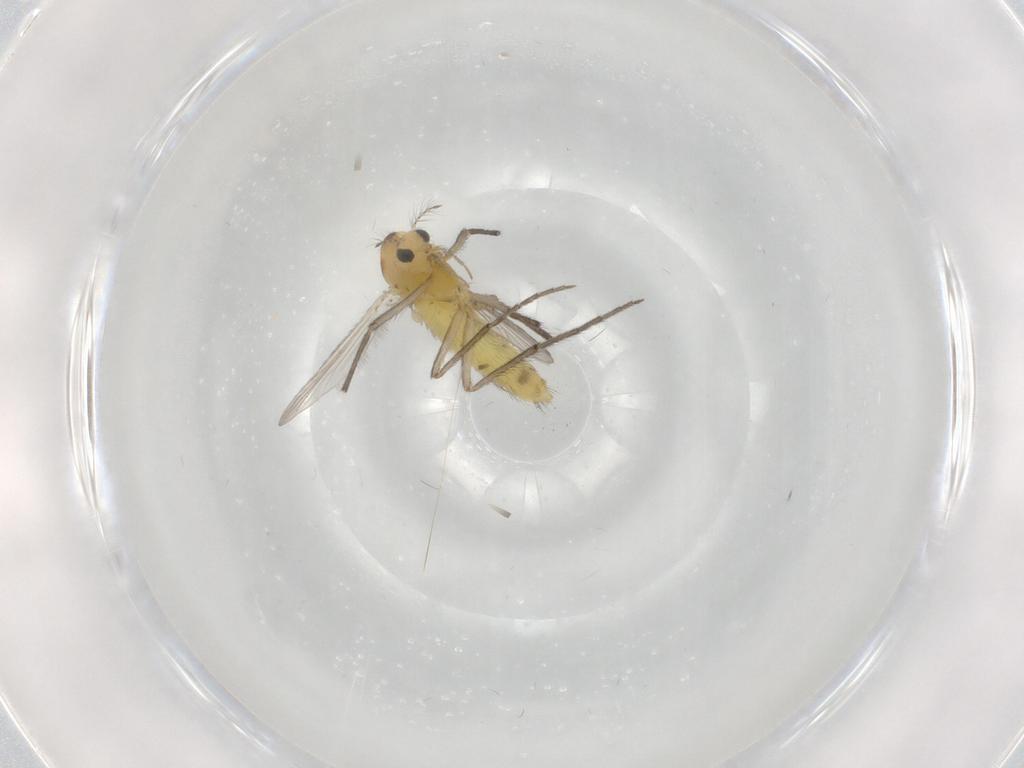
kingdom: Animalia
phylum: Arthropoda
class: Insecta
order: Diptera
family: Chironomidae
